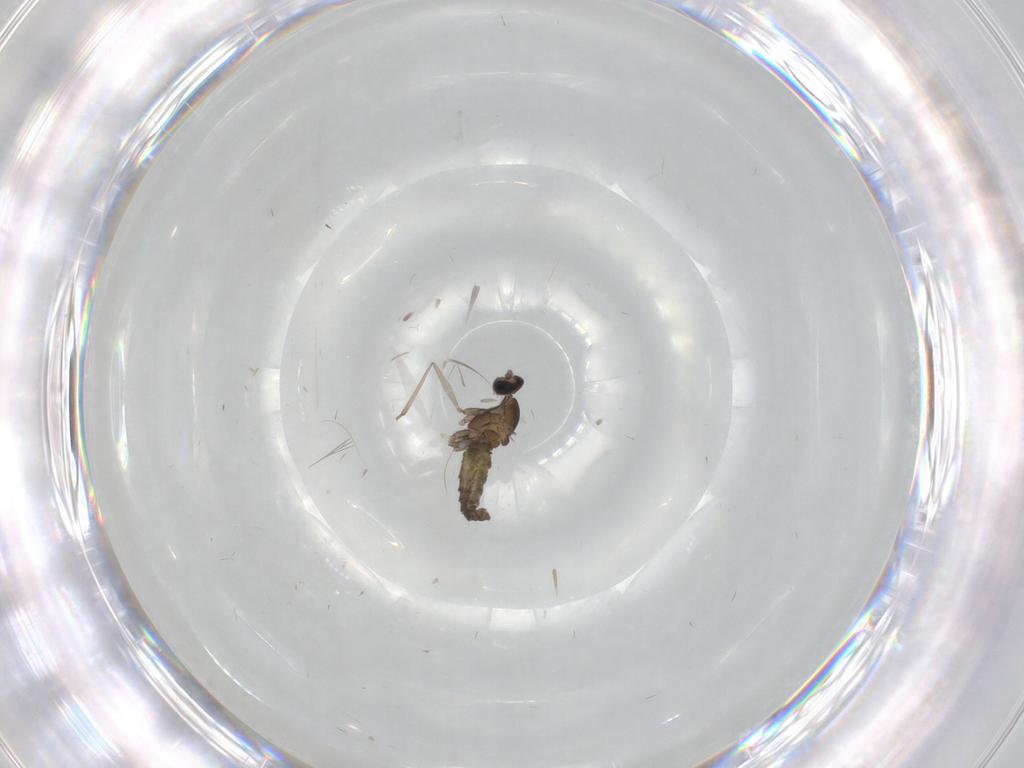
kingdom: Animalia
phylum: Arthropoda
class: Insecta
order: Diptera
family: Cecidomyiidae
